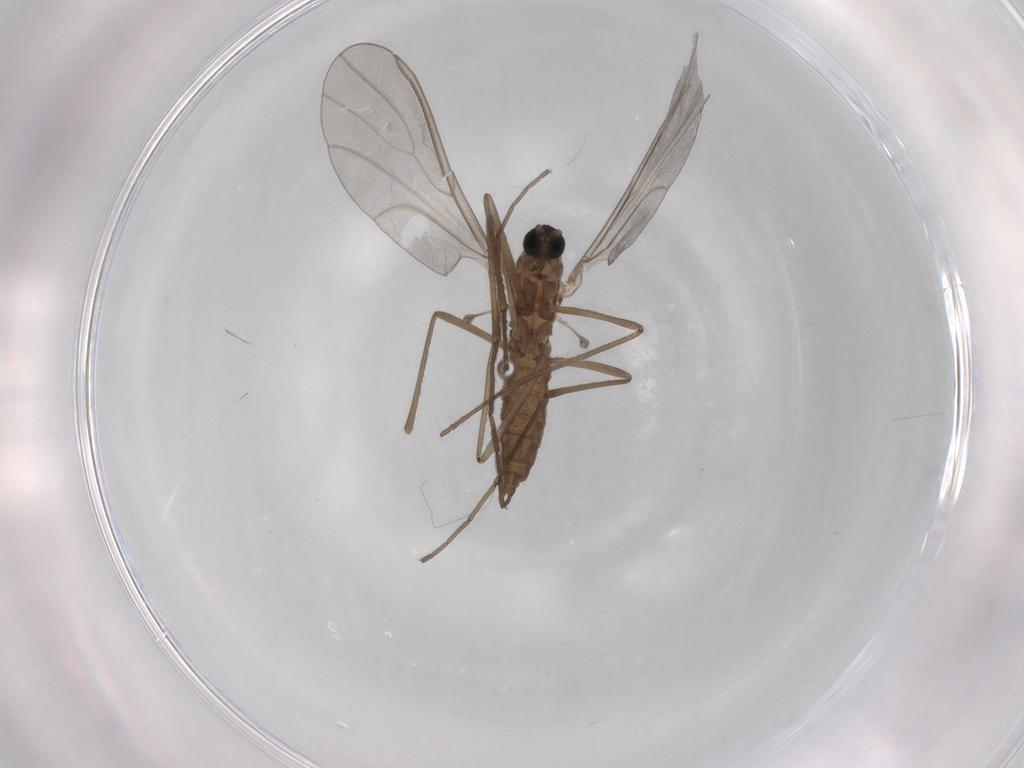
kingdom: Animalia
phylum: Arthropoda
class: Insecta
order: Diptera
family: Cecidomyiidae
